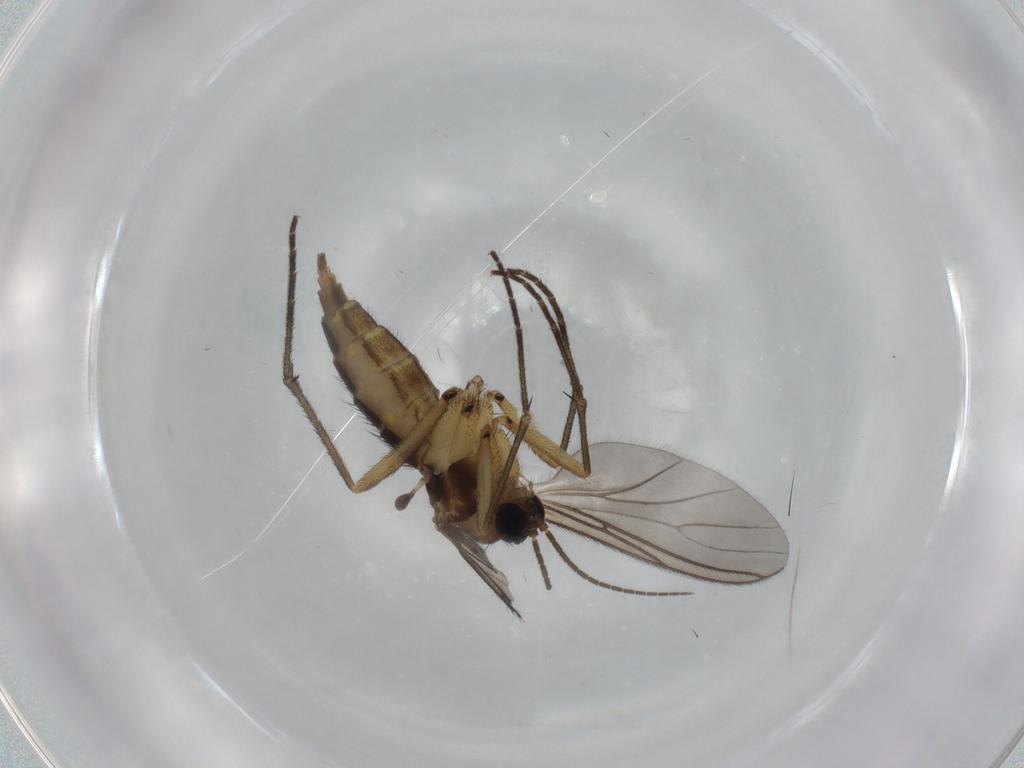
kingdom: Animalia
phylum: Arthropoda
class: Insecta
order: Diptera
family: Sciaridae
